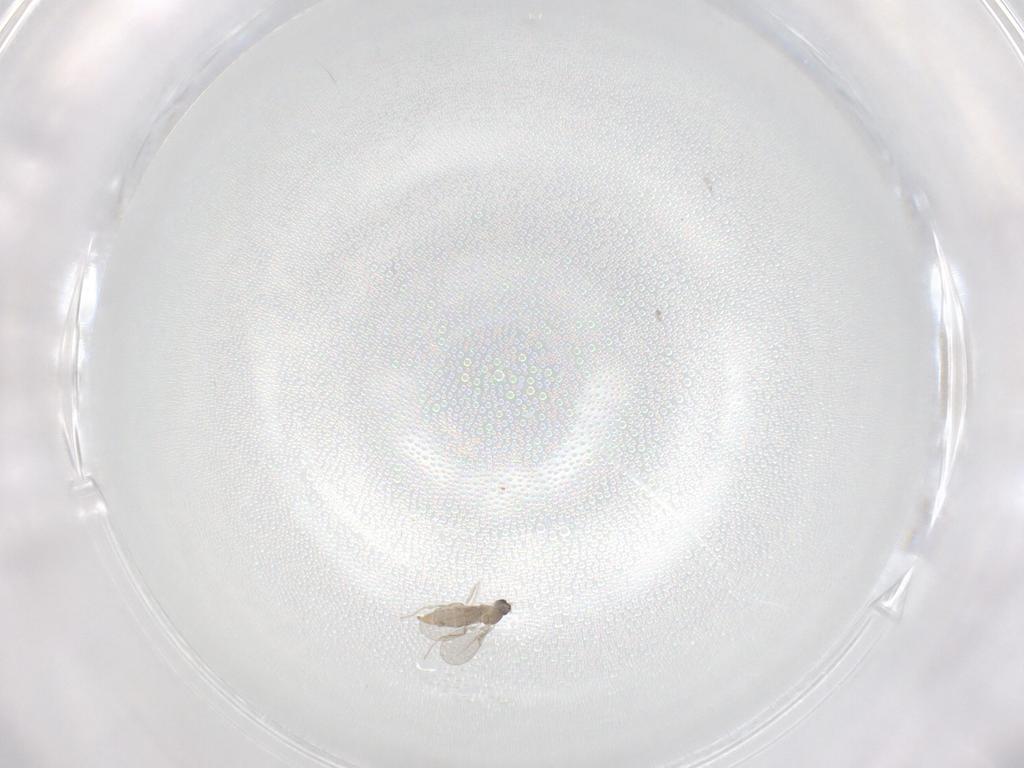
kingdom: Animalia
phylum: Arthropoda
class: Insecta
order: Diptera
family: Cecidomyiidae
